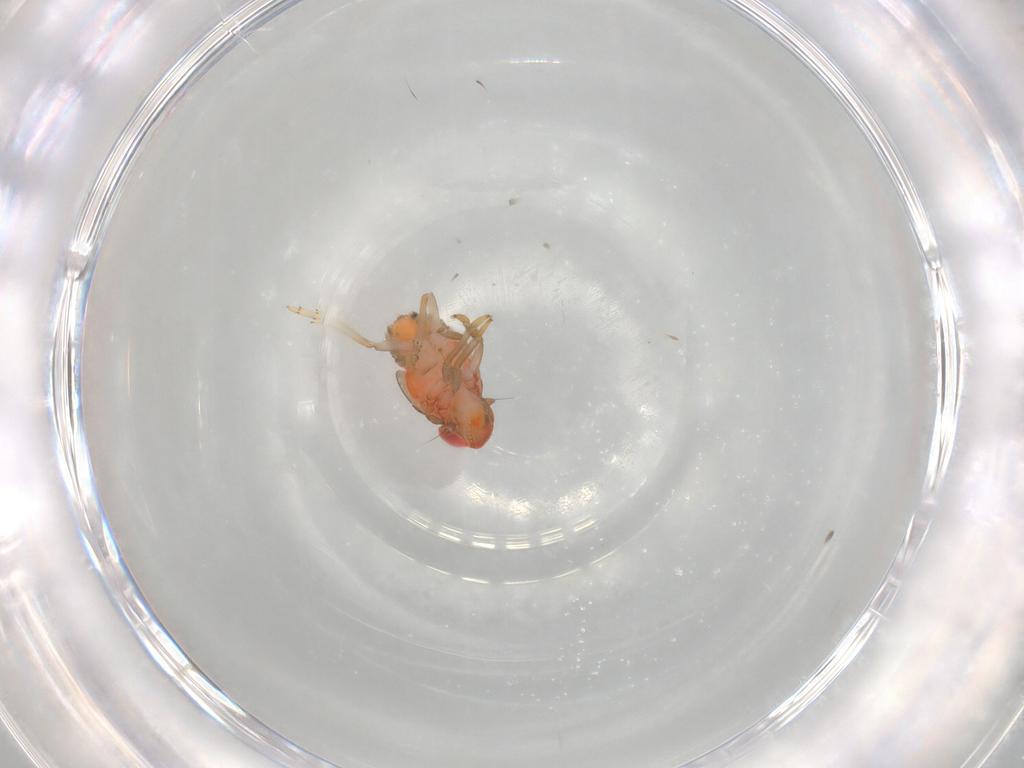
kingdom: Animalia
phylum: Arthropoda
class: Insecta
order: Hemiptera
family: Issidae
